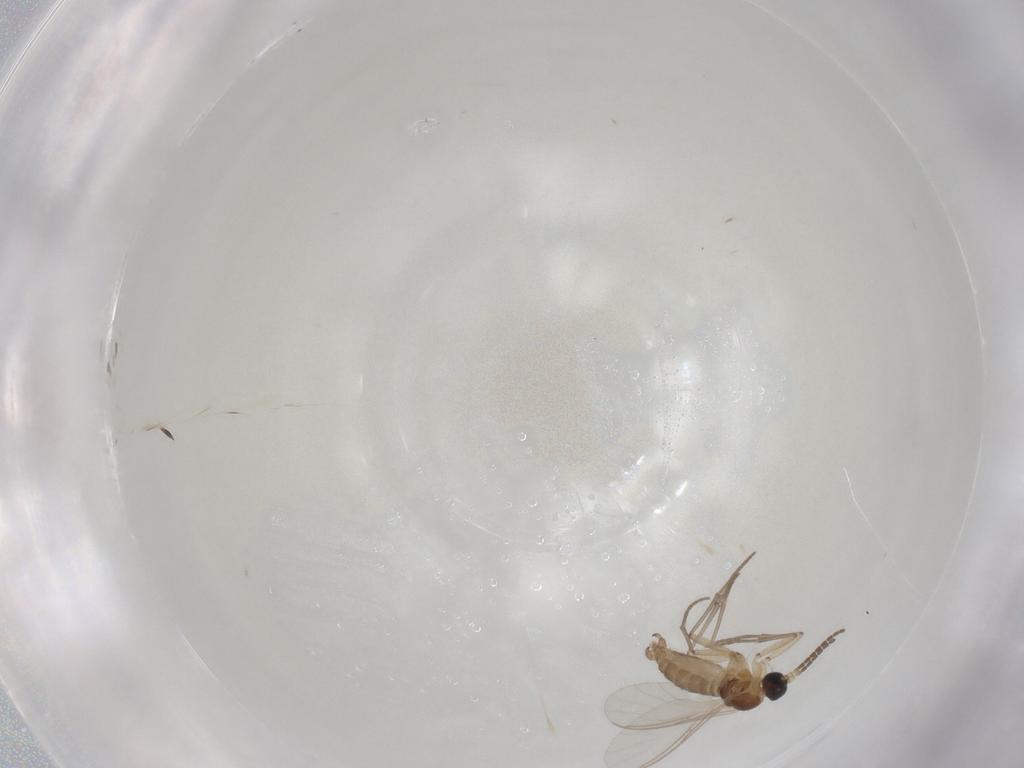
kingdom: Animalia
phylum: Arthropoda
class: Insecta
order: Diptera
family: Sciaridae
